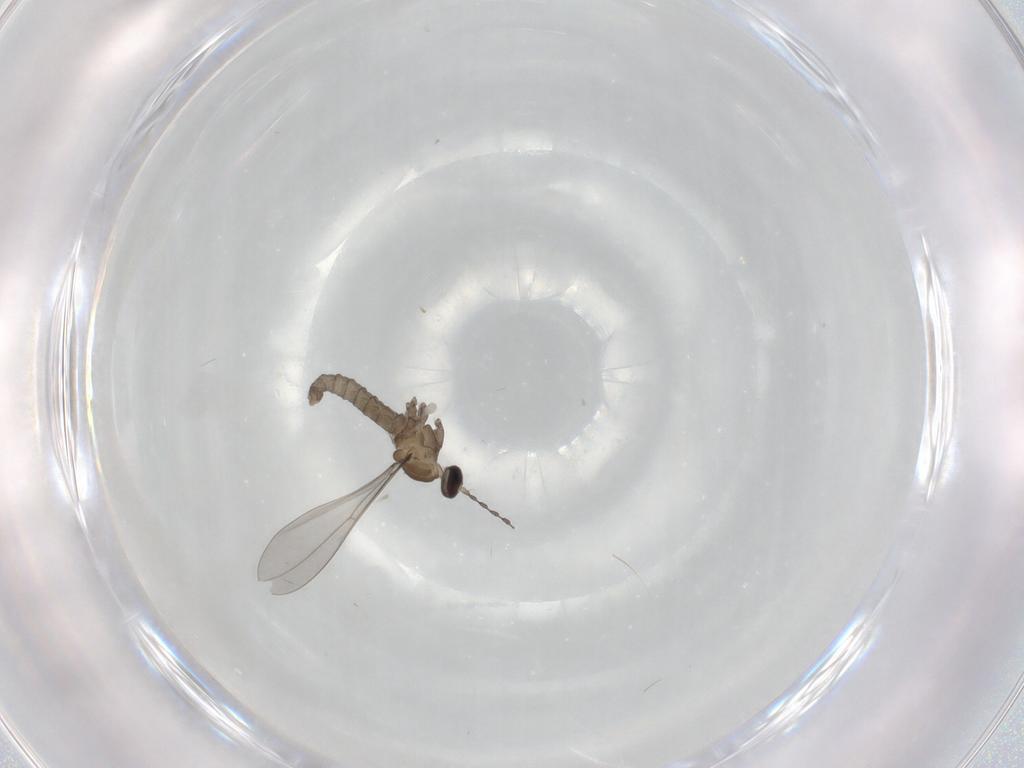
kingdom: Animalia
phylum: Arthropoda
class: Insecta
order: Diptera
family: Cecidomyiidae
